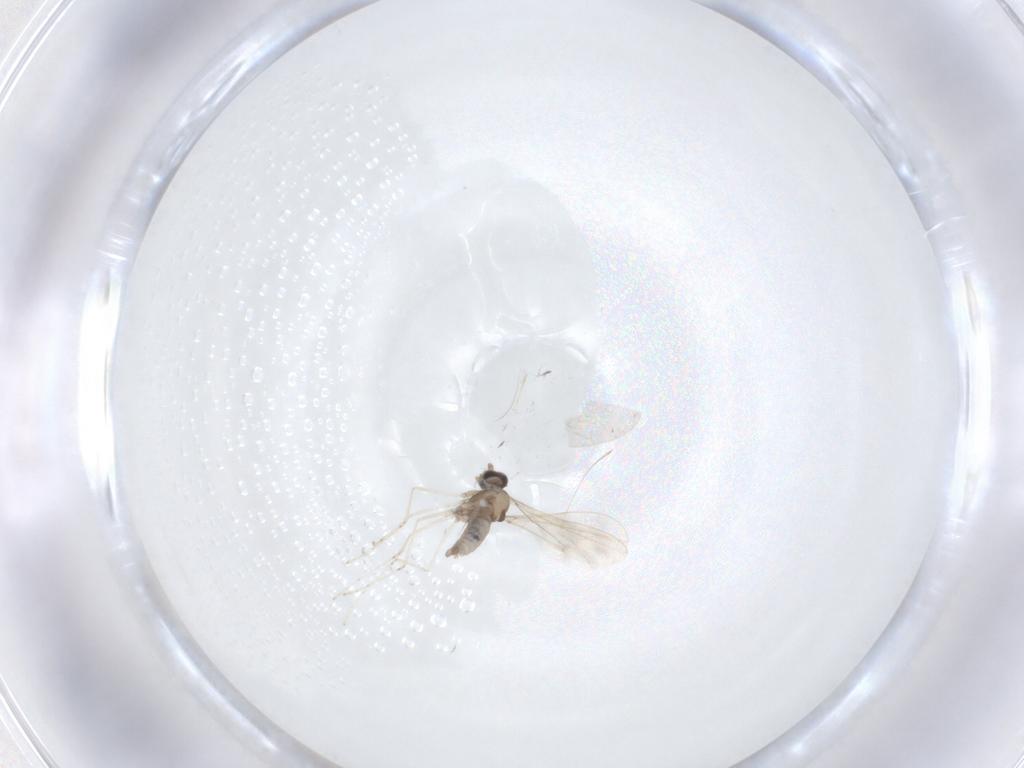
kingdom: Animalia
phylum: Arthropoda
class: Insecta
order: Diptera
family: Cecidomyiidae
